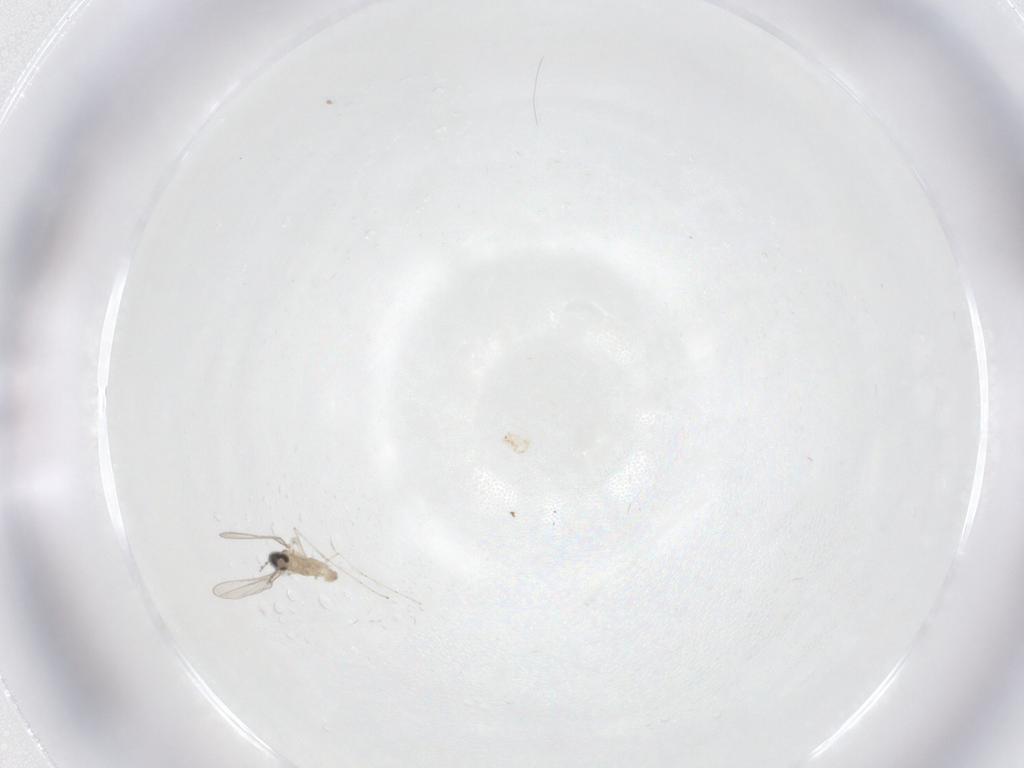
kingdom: Animalia
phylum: Arthropoda
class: Insecta
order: Diptera
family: Cecidomyiidae
